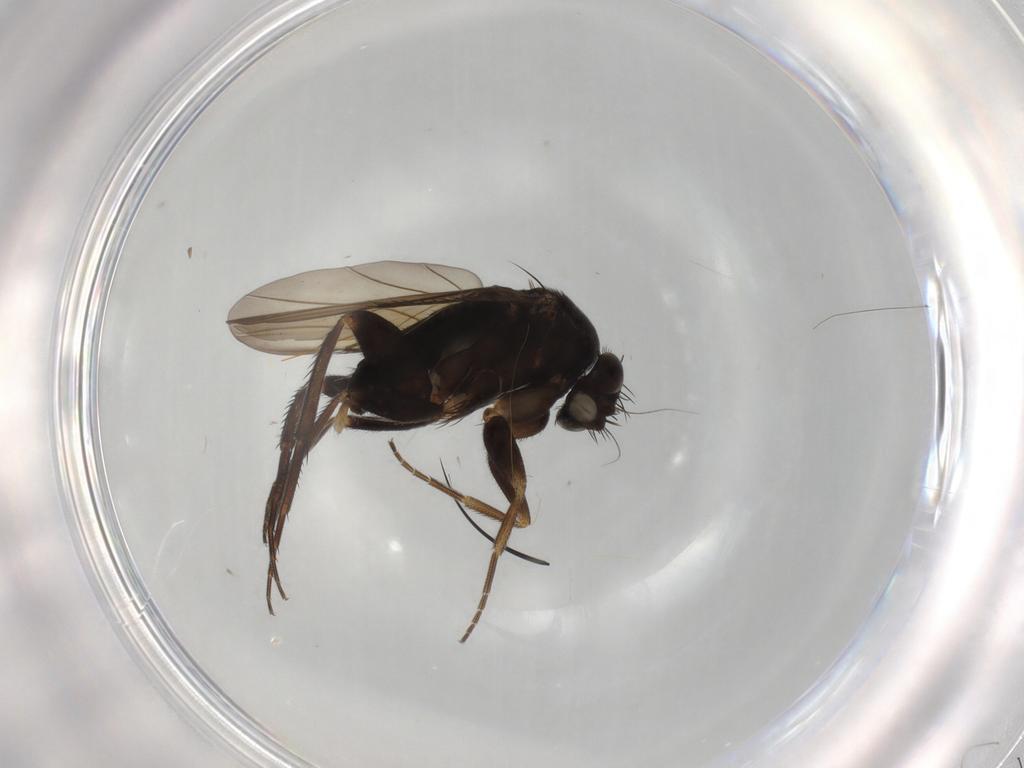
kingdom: Animalia
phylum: Arthropoda
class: Insecta
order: Diptera
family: Phoridae
